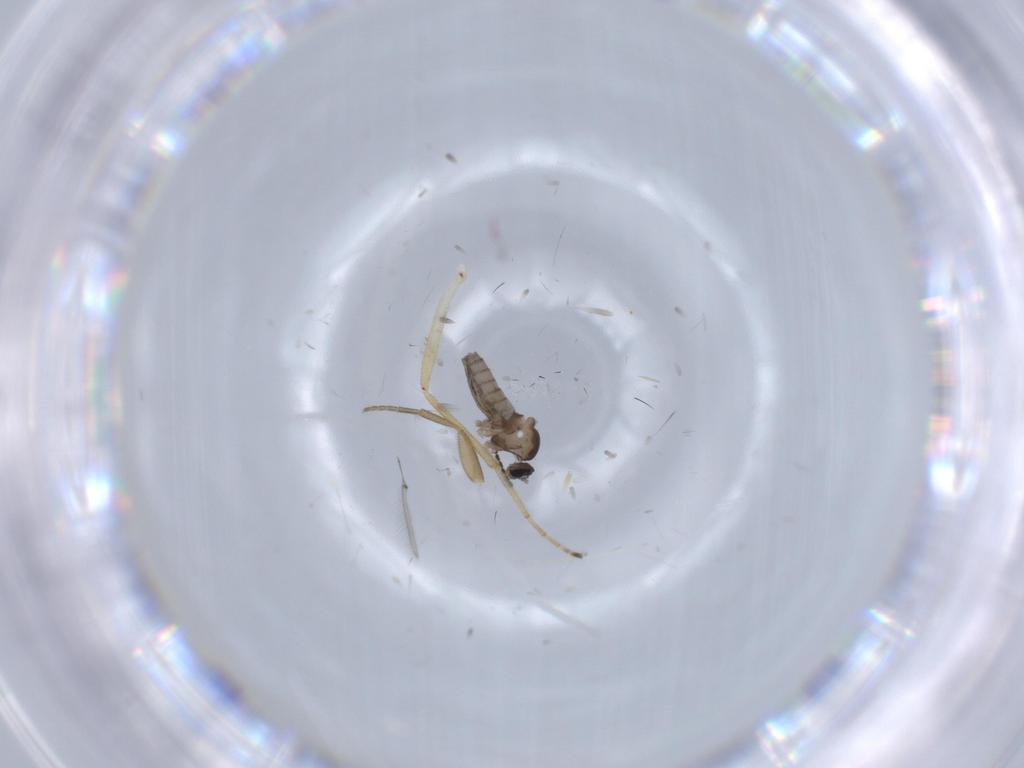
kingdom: Animalia
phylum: Arthropoda
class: Insecta
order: Diptera
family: Cecidomyiidae
